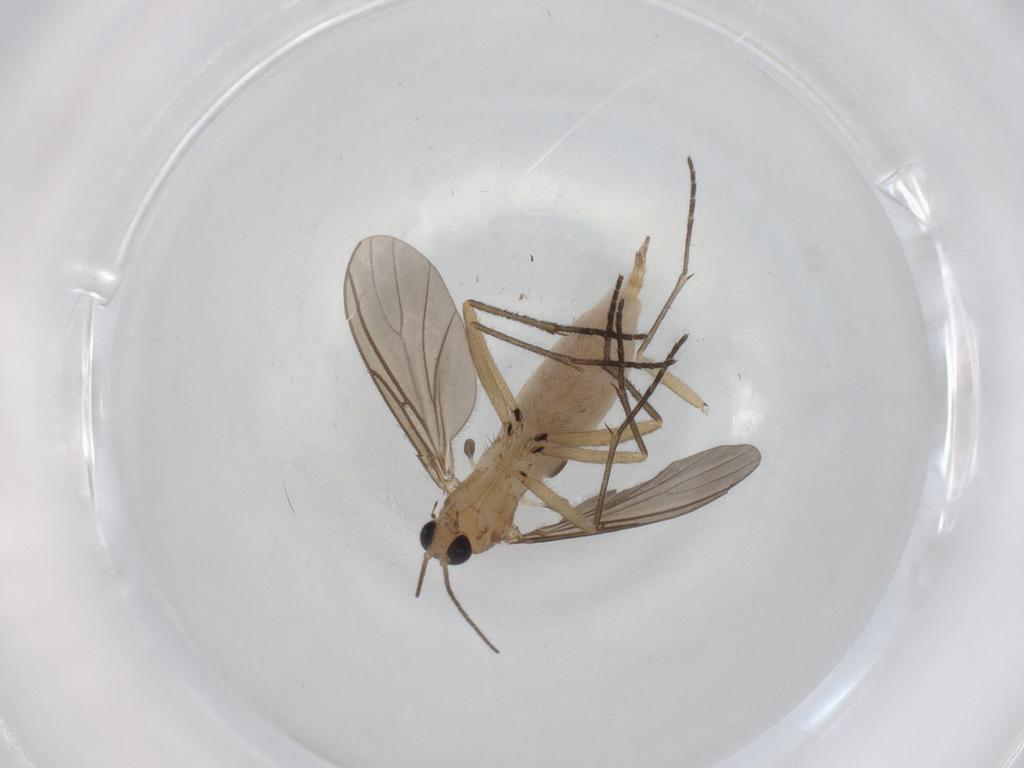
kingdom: Animalia
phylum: Arthropoda
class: Insecta
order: Diptera
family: Sciaridae
